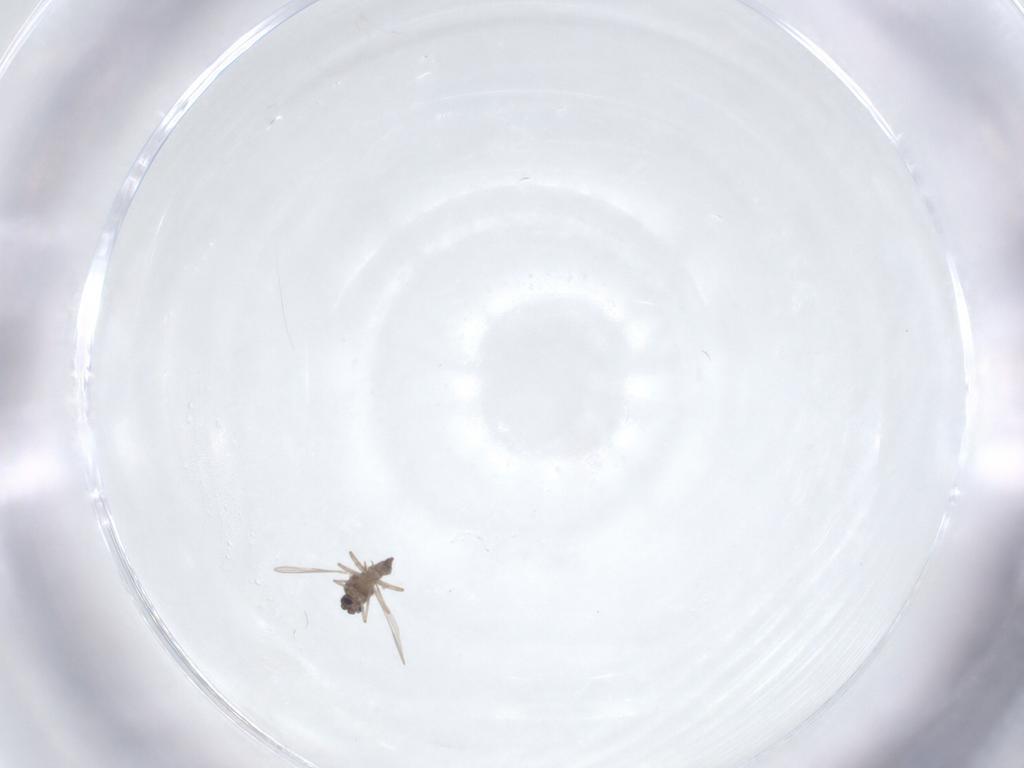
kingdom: Animalia
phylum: Arthropoda
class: Insecta
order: Diptera
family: Ceratopogonidae
